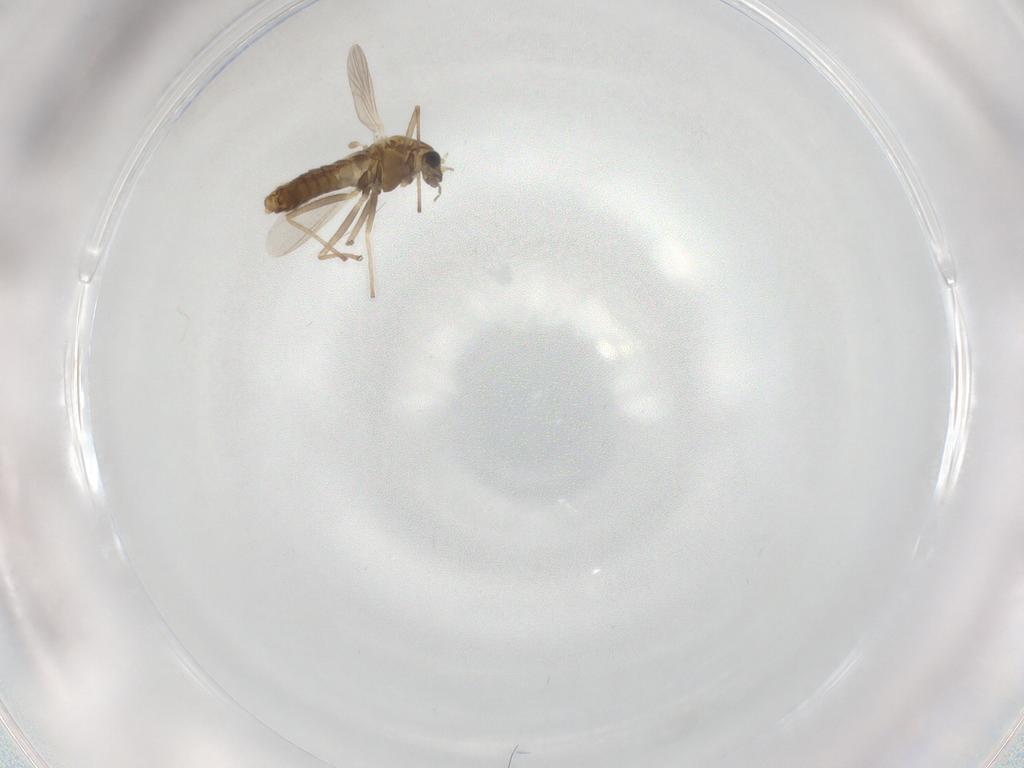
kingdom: Animalia
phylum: Arthropoda
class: Insecta
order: Diptera
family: Chironomidae
